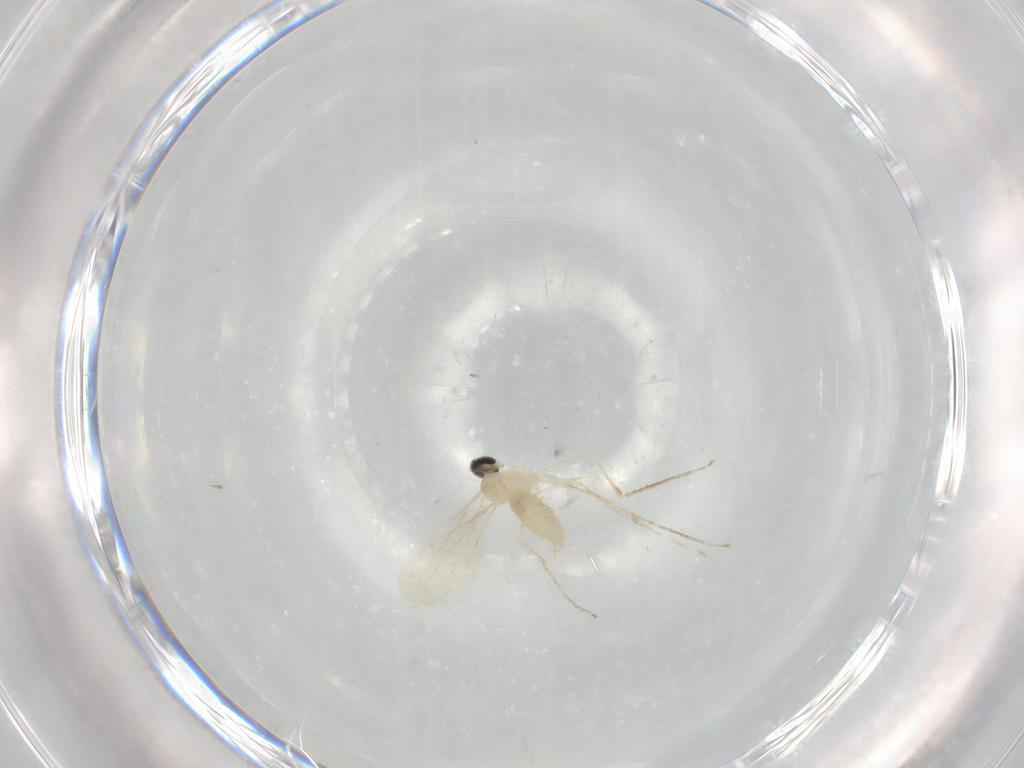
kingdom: Animalia
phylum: Arthropoda
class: Insecta
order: Diptera
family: Cecidomyiidae
